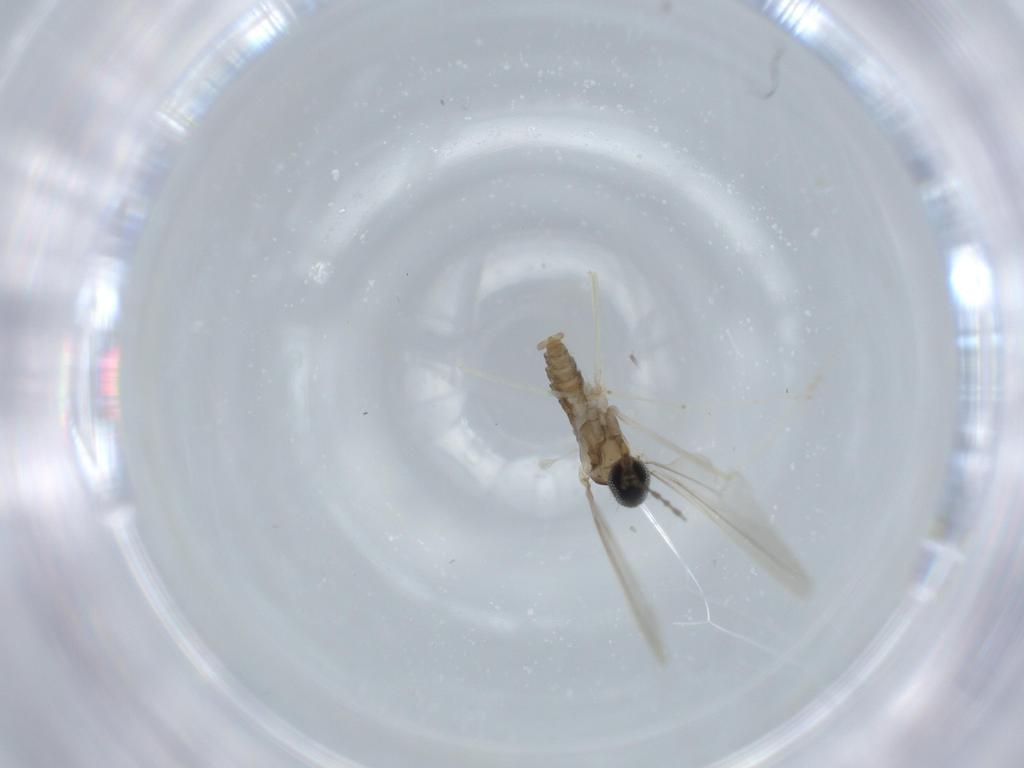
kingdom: Animalia
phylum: Arthropoda
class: Insecta
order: Diptera
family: Cecidomyiidae
